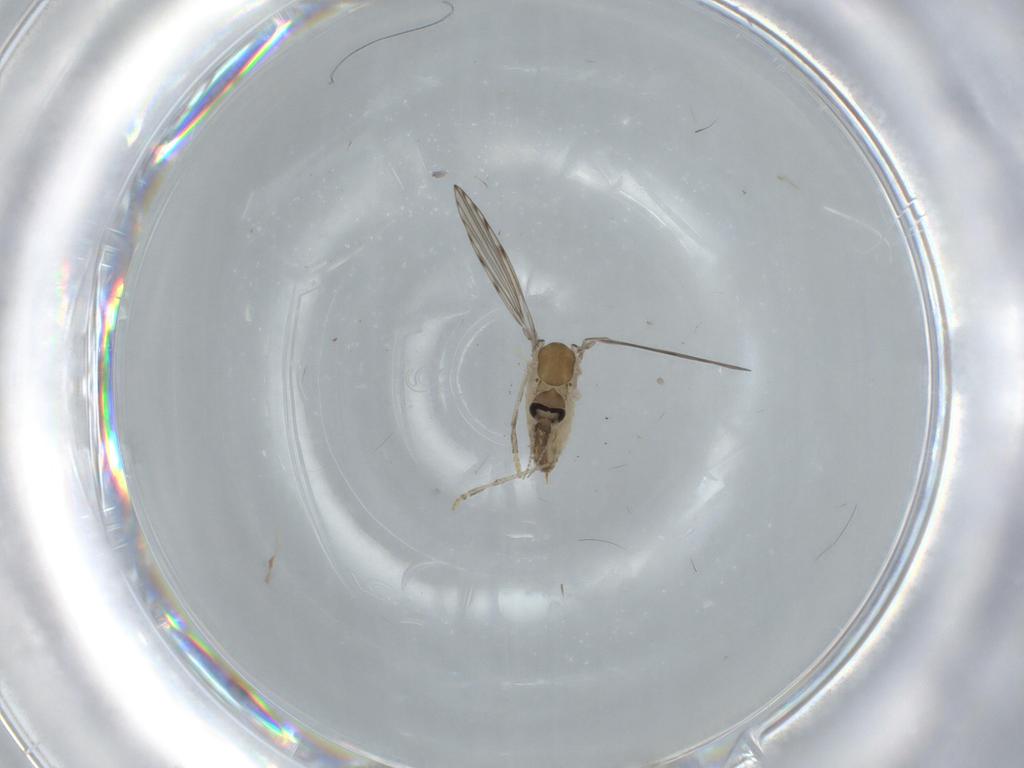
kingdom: Animalia
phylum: Arthropoda
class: Insecta
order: Diptera
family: Psychodidae
